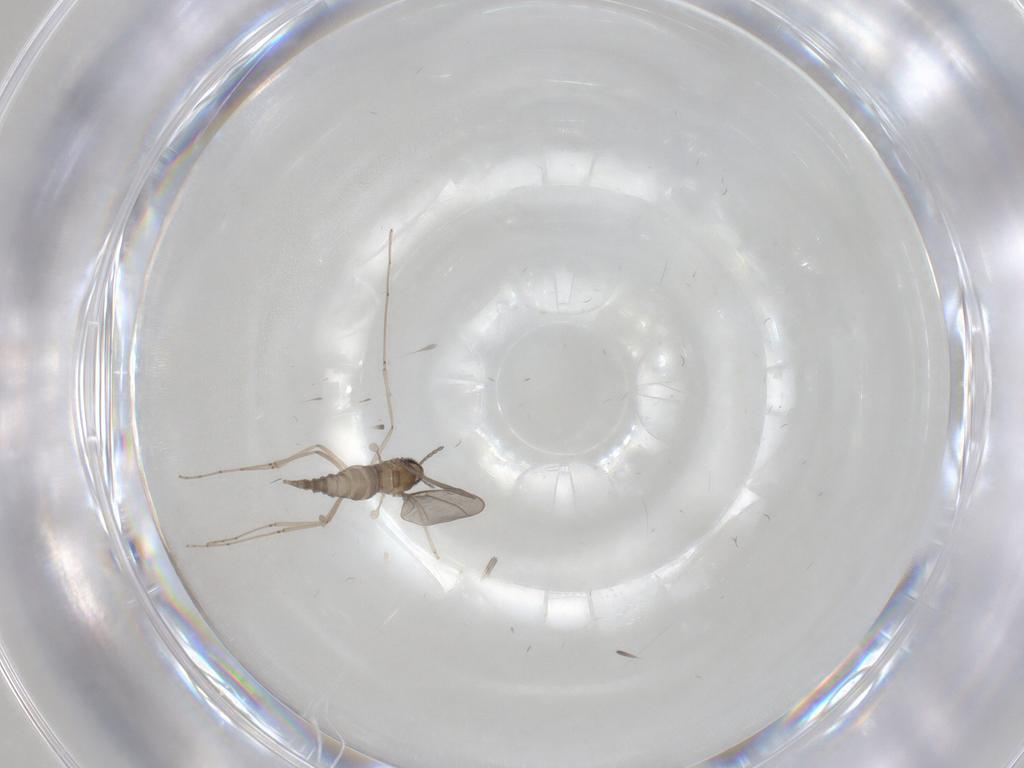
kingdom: Animalia
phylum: Arthropoda
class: Insecta
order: Diptera
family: Cecidomyiidae
